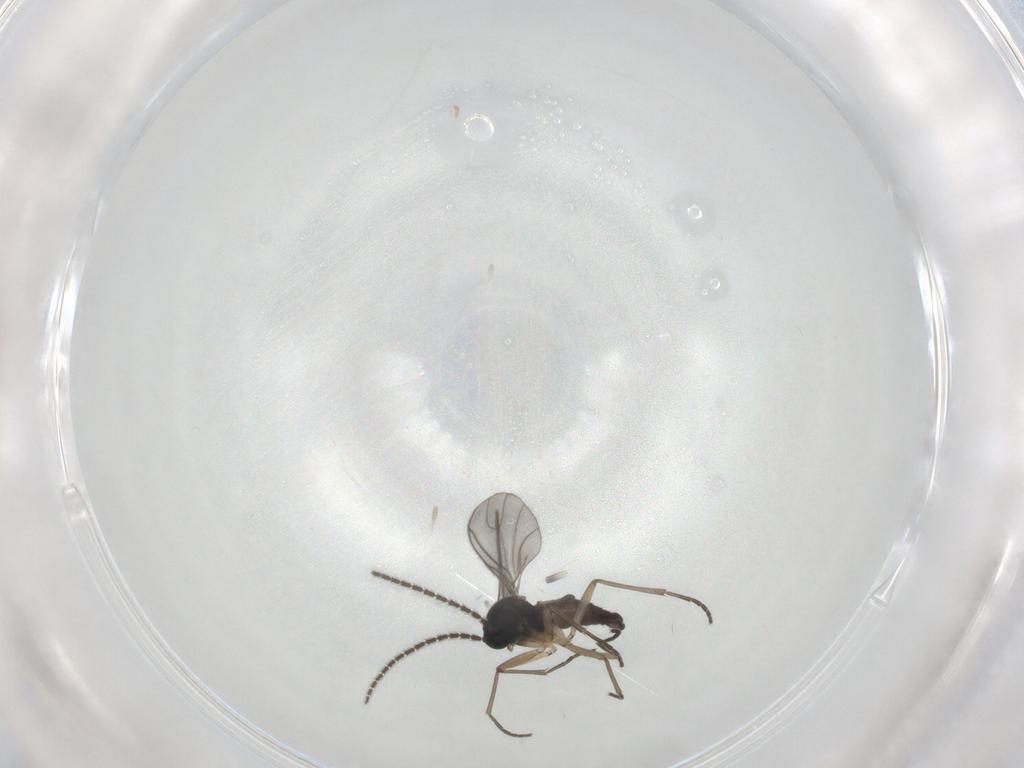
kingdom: Animalia
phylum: Arthropoda
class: Insecta
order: Diptera
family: Sciaridae
